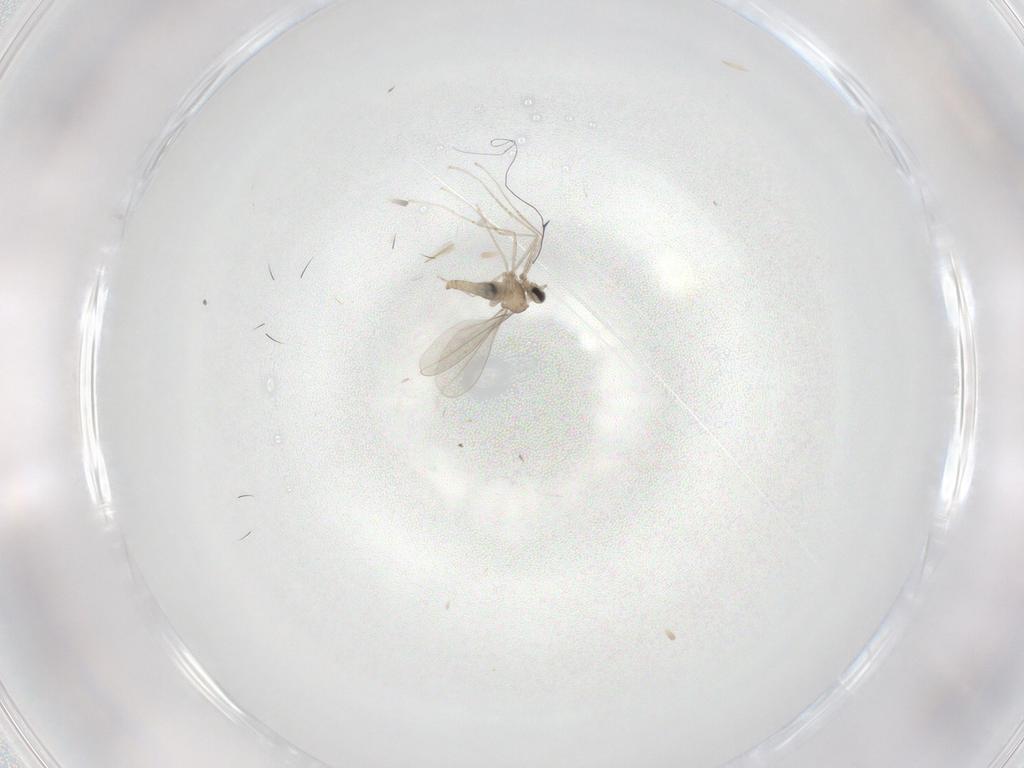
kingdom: Animalia
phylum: Arthropoda
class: Insecta
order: Diptera
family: Cecidomyiidae
